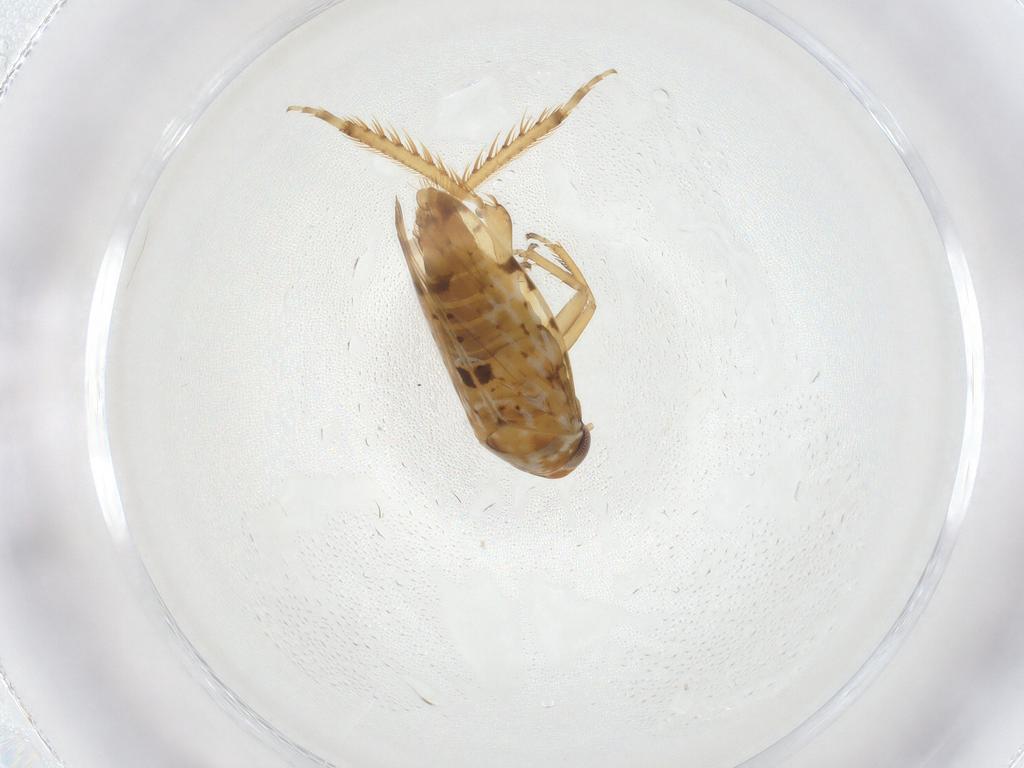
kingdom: Animalia
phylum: Arthropoda
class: Insecta
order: Hemiptera
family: Cicadellidae
